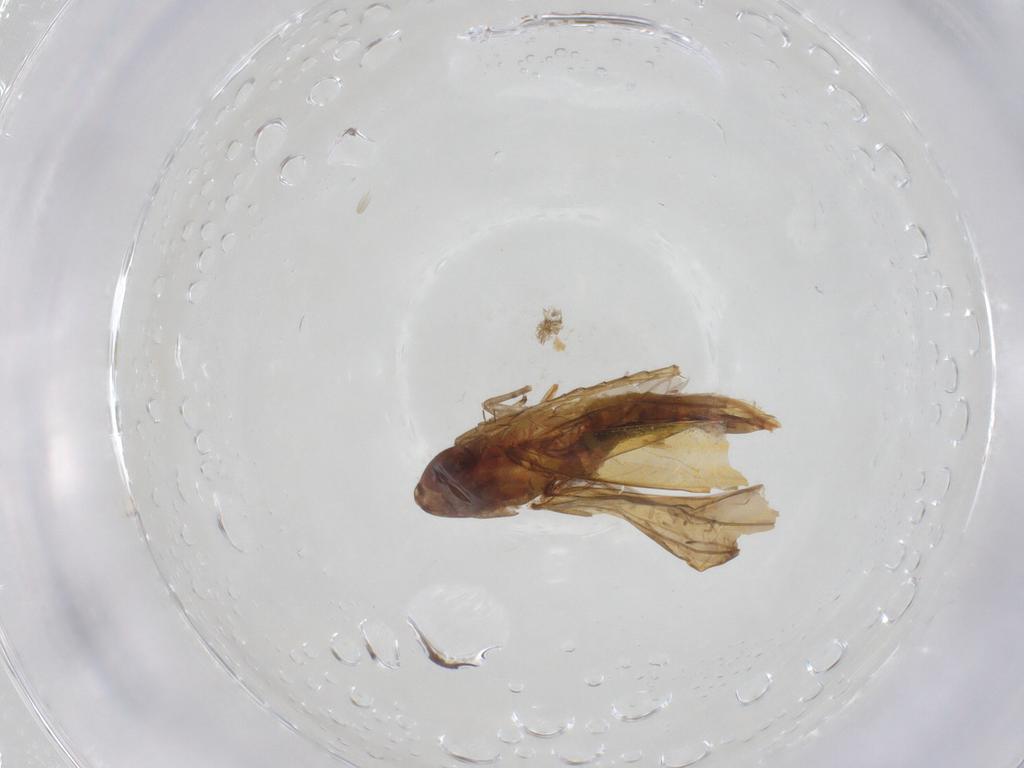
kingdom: Animalia
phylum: Arthropoda
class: Insecta
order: Hemiptera
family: Cicadellidae
